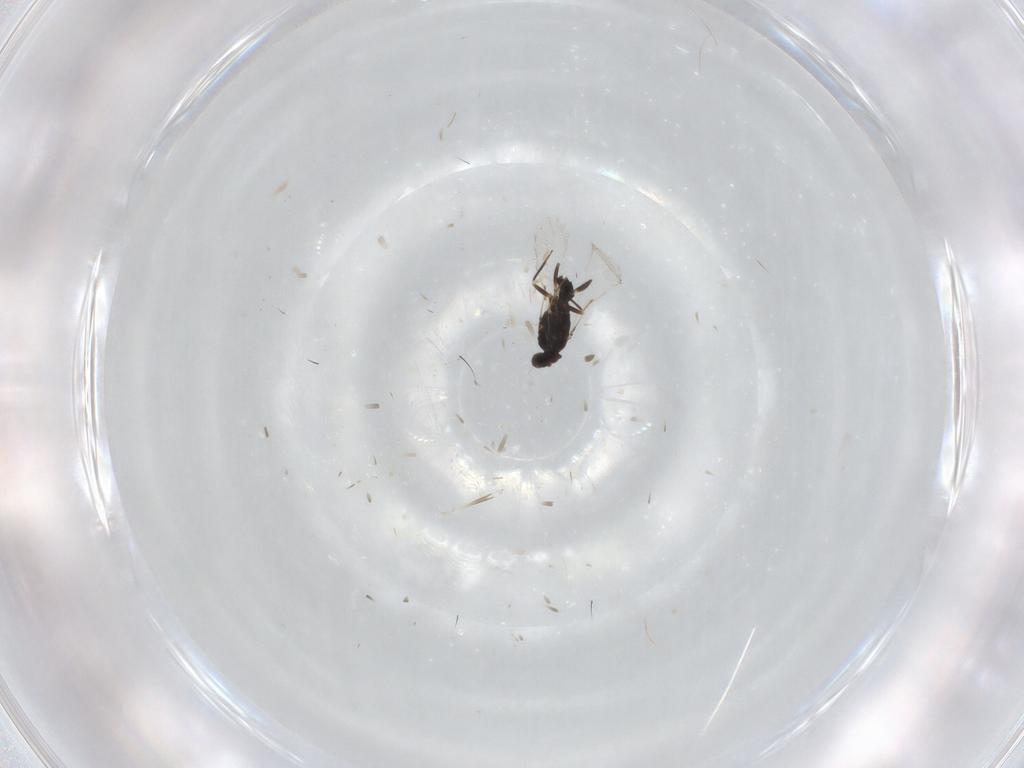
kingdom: Animalia
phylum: Arthropoda
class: Insecta
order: Hymenoptera
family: Mymaridae
